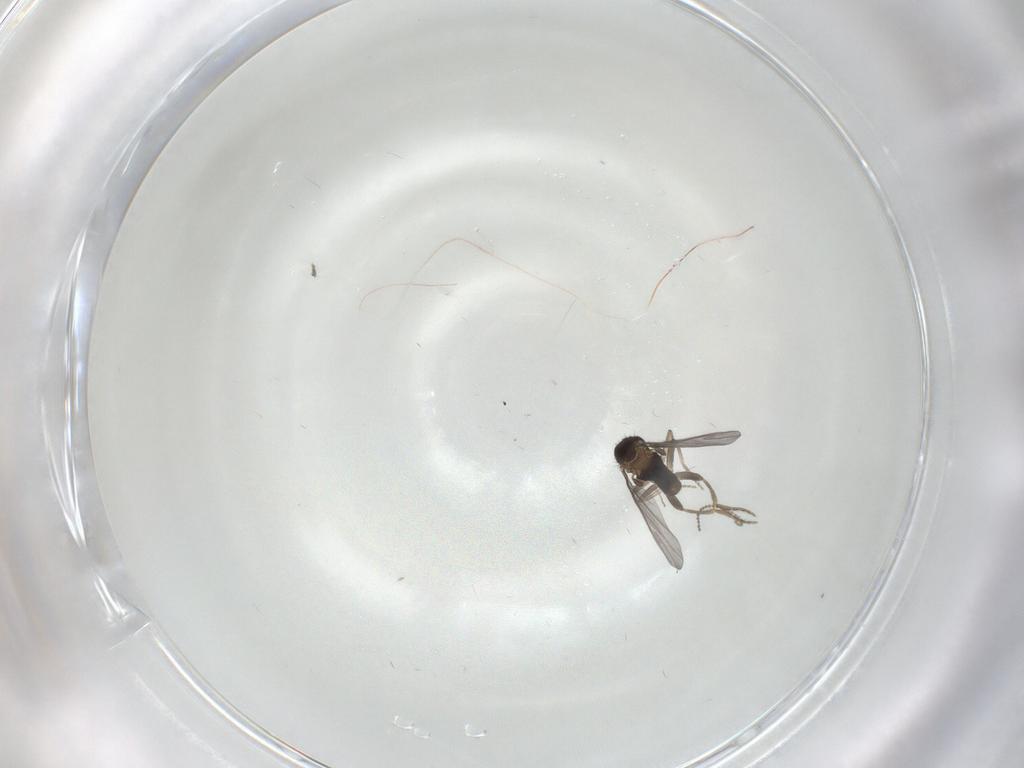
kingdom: Animalia
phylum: Arthropoda
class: Insecta
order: Diptera
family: Cecidomyiidae
